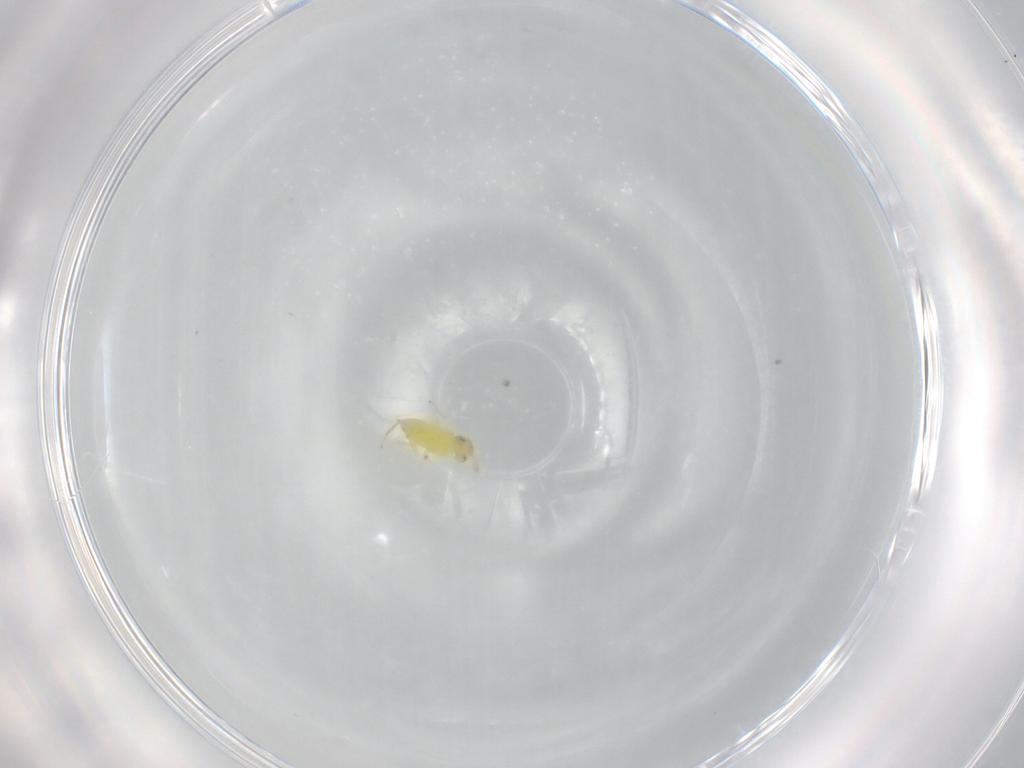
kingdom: Animalia
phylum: Arthropoda
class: Insecta
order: Hymenoptera
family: Aphelinidae
